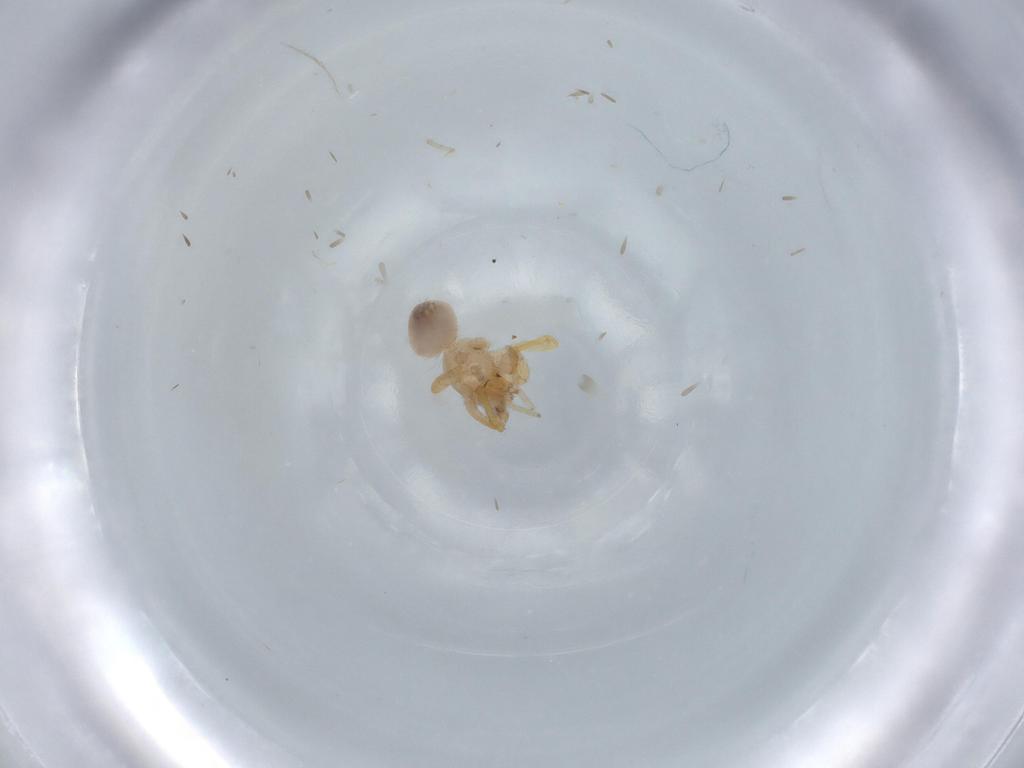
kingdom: Animalia
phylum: Arthropoda
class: Arachnida
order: Araneae
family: Oonopidae
